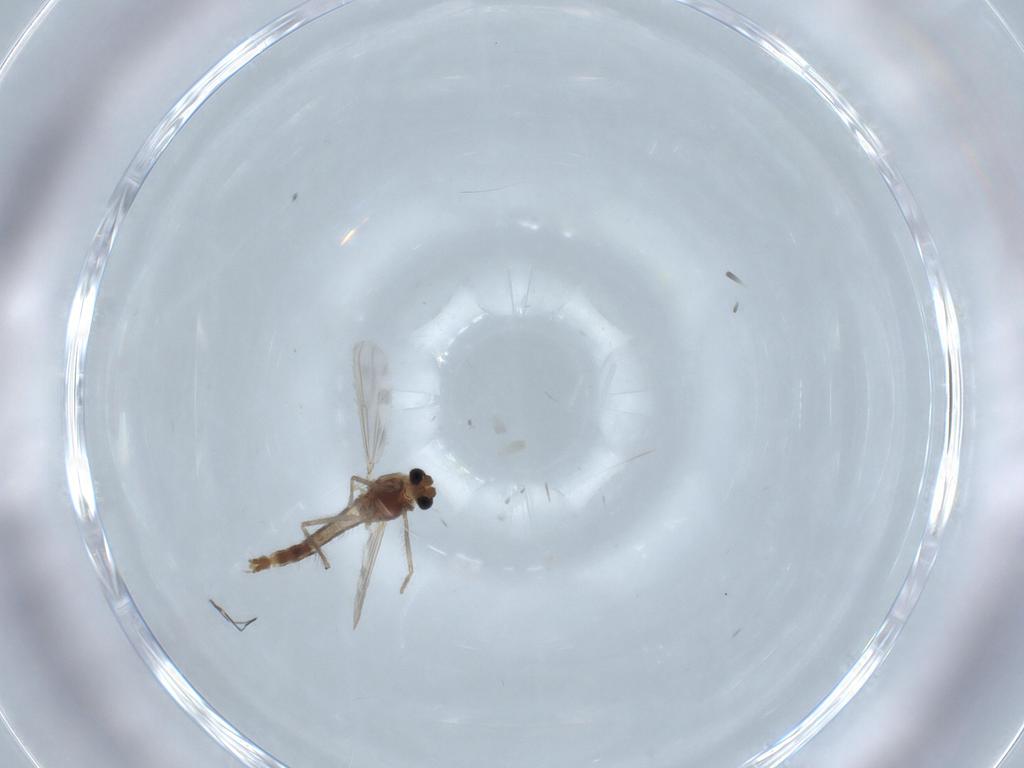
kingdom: Animalia
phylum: Arthropoda
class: Insecta
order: Diptera
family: Chironomidae
